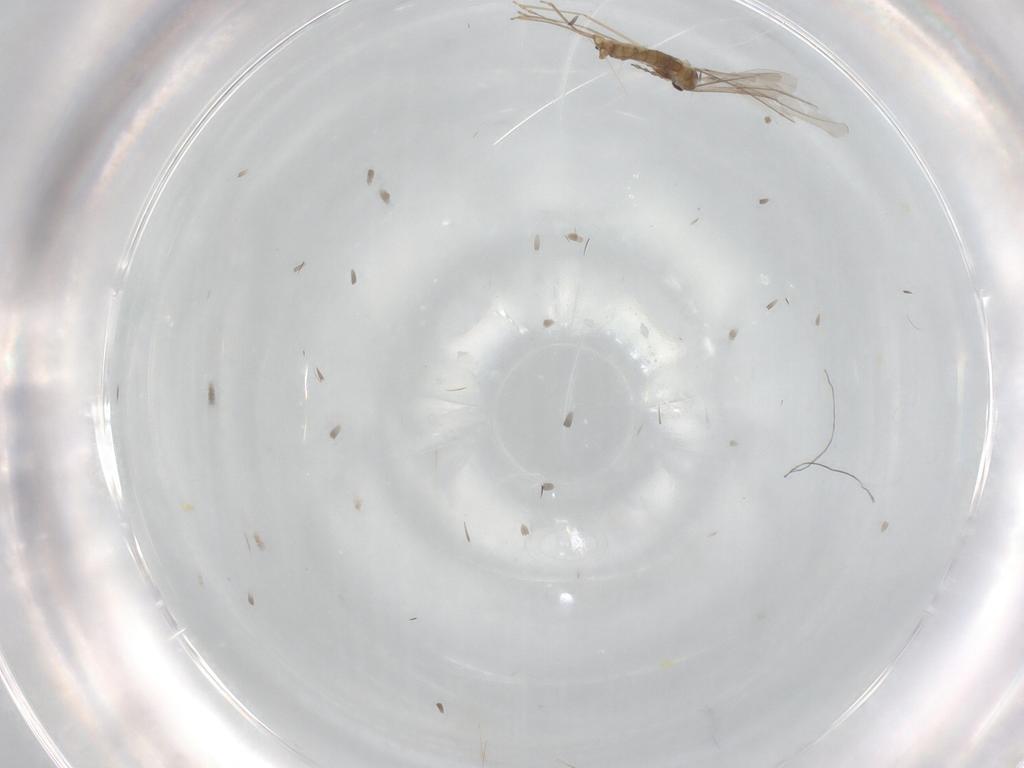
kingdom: Animalia
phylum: Arthropoda
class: Insecta
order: Diptera
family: Cecidomyiidae
